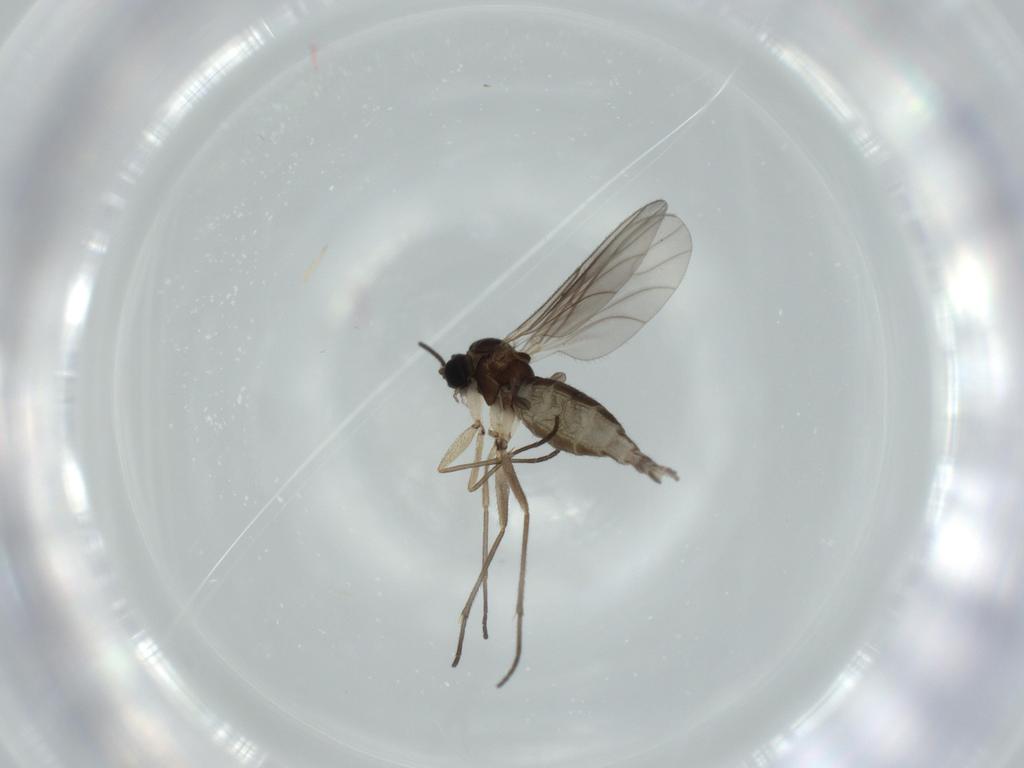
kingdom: Animalia
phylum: Arthropoda
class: Insecta
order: Diptera
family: Sciaridae
